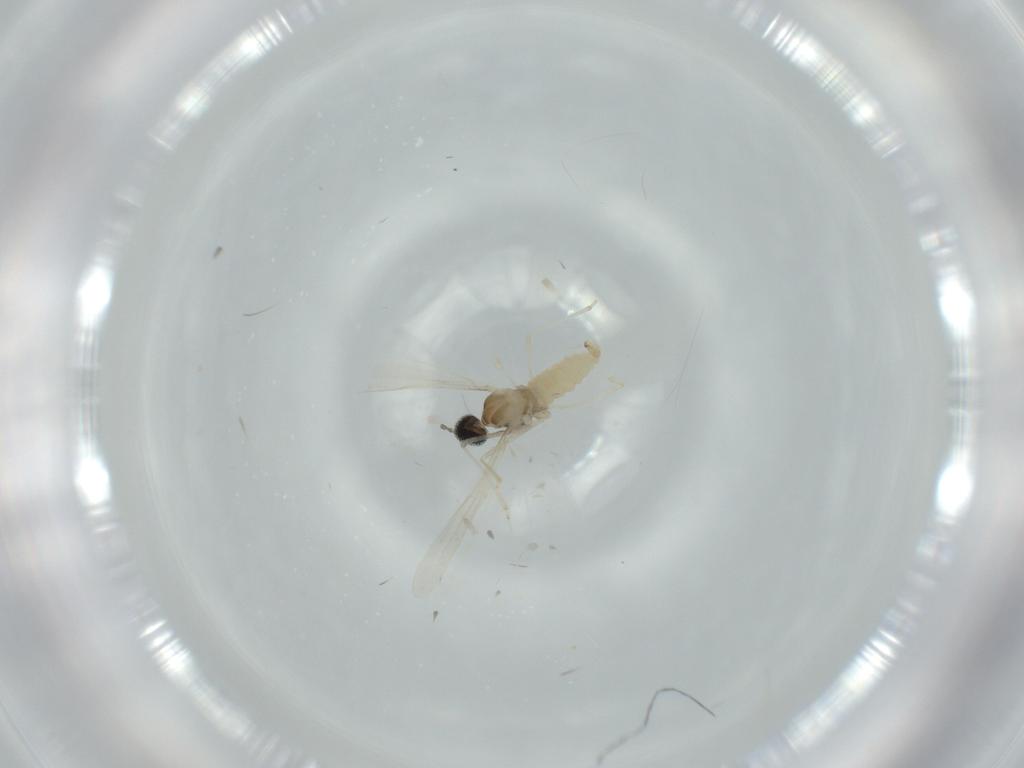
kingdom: Animalia
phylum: Arthropoda
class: Insecta
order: Diptera
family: Cecidomyiidae
